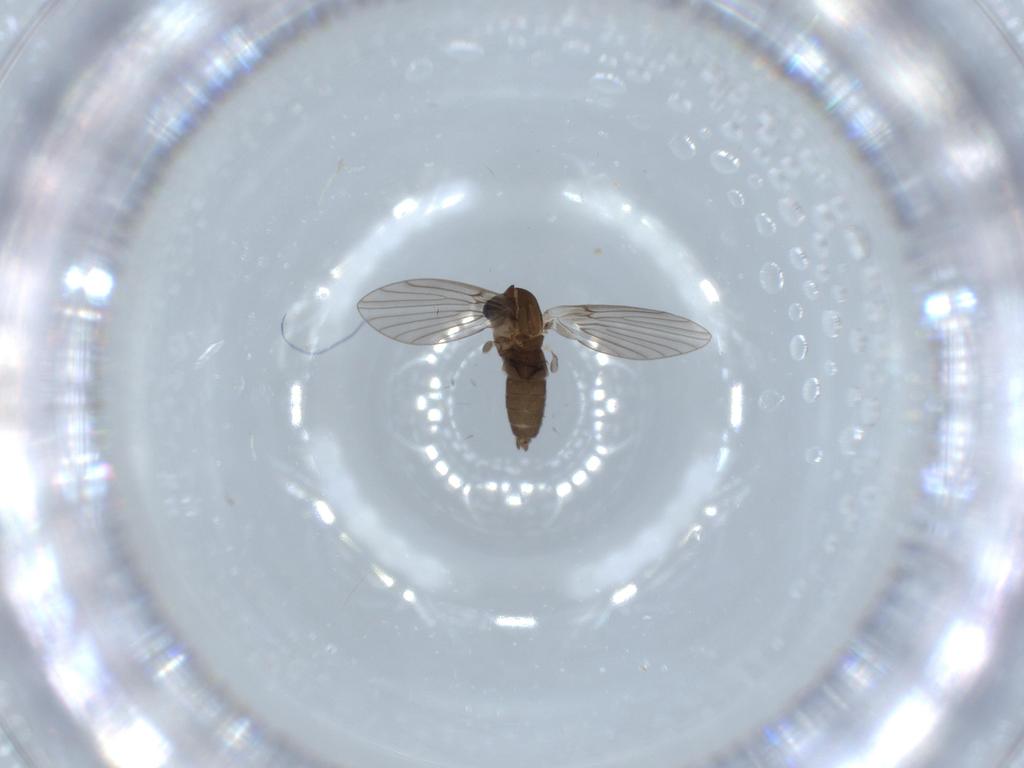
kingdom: Animalia
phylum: Arthropoda
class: Insecta
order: Diptera
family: Psychodidae
